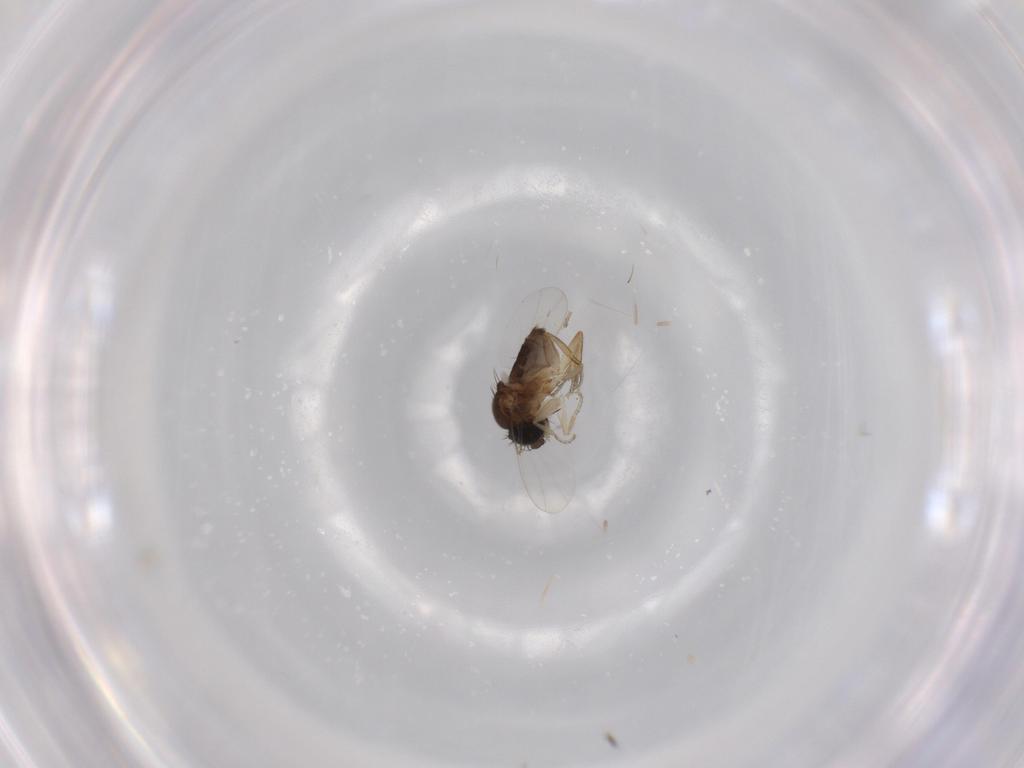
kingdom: Animalia
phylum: Arthropoda
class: Insecta
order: Diptera
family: Phoridae
